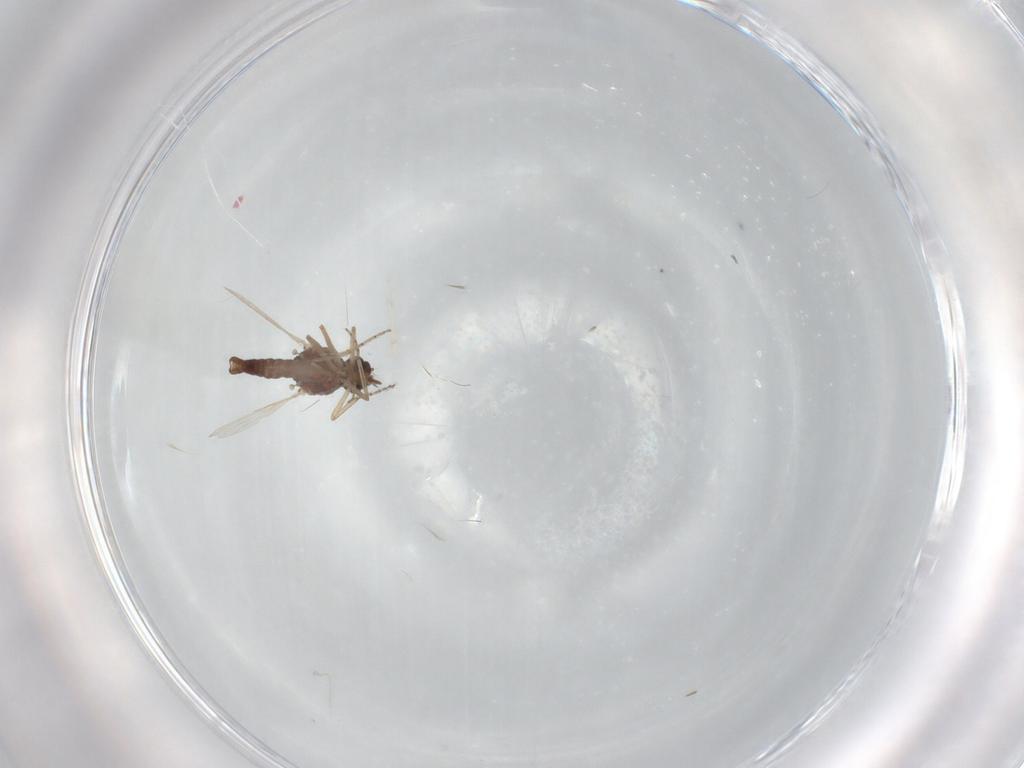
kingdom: Animalia
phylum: Arthropoda
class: Insecta
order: Diptera
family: Ceratopogonidae
